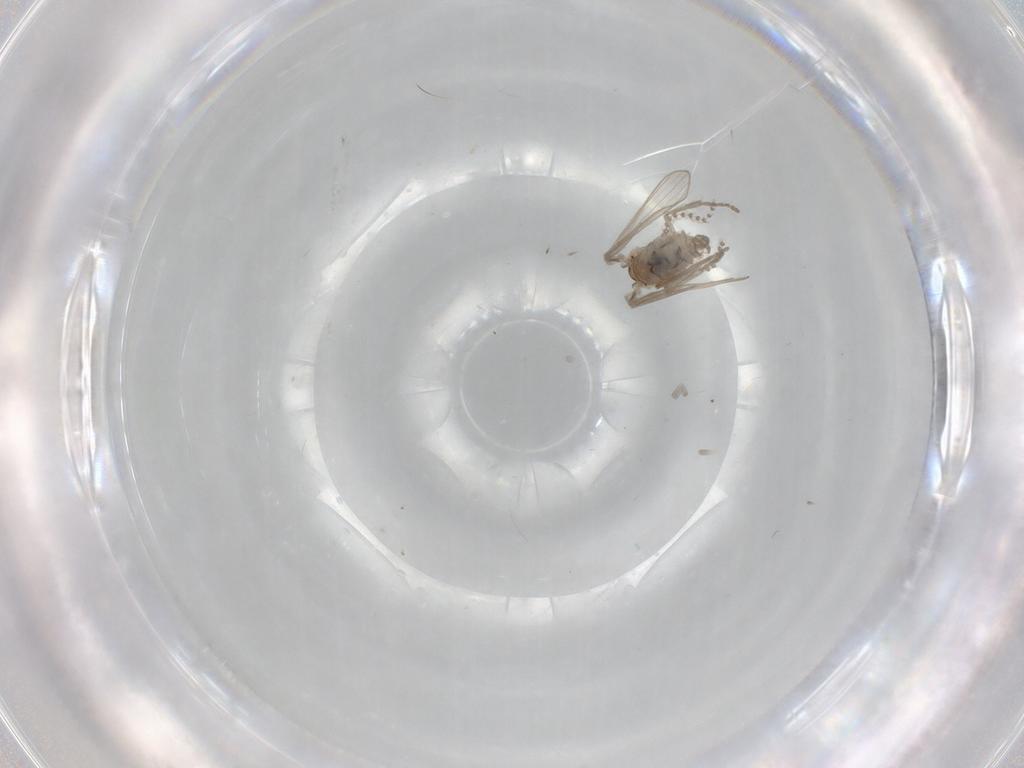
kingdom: Animalia
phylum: Arthropoda
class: Insecta
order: Diptera
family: Psychodidae
